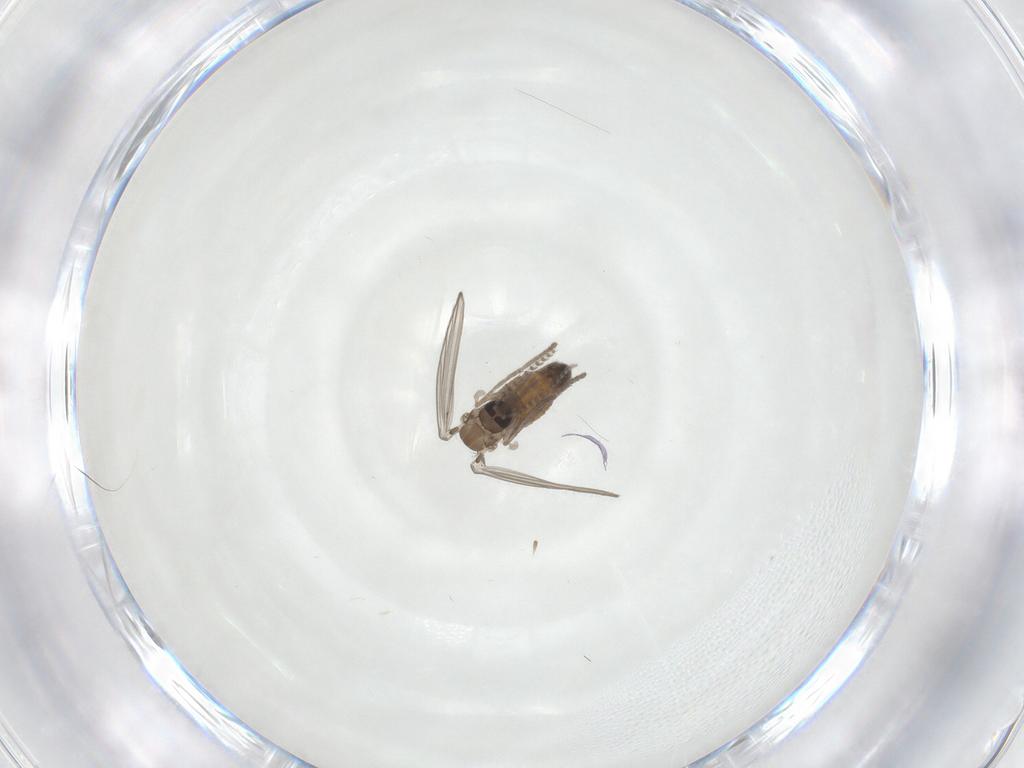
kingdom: Animalia
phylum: Arthropoda
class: Insecta
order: Diptera
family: Psychodidae
